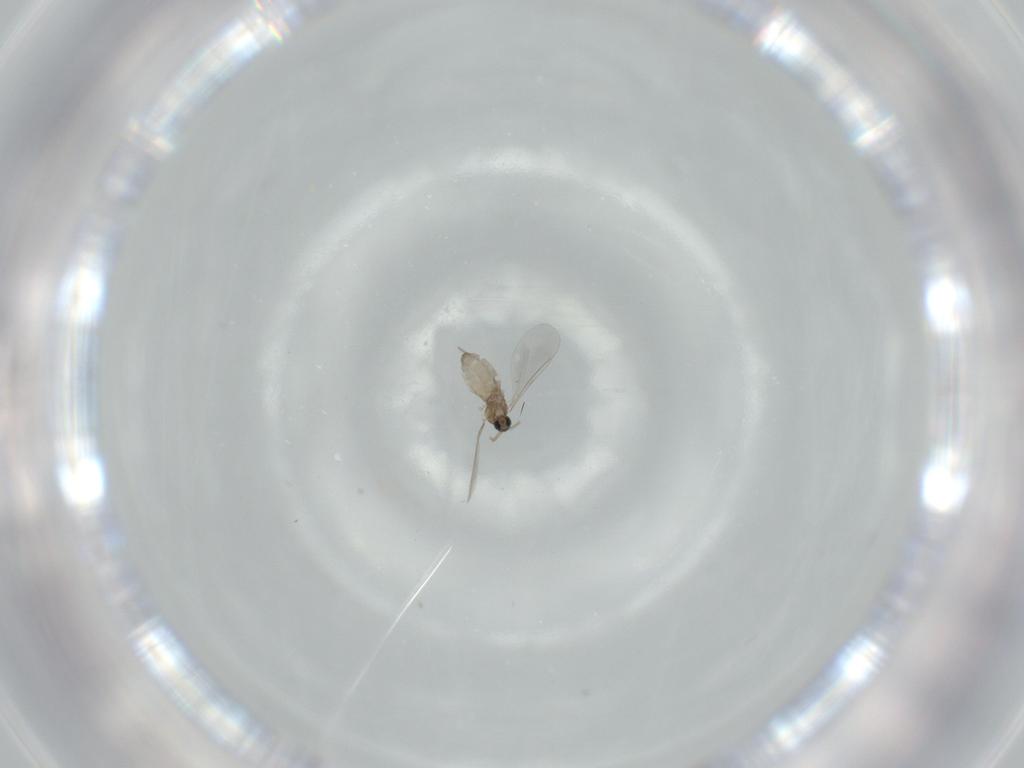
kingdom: Animalia
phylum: Arthropoda
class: Insecta
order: Diptera
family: Cecidomyiidae
